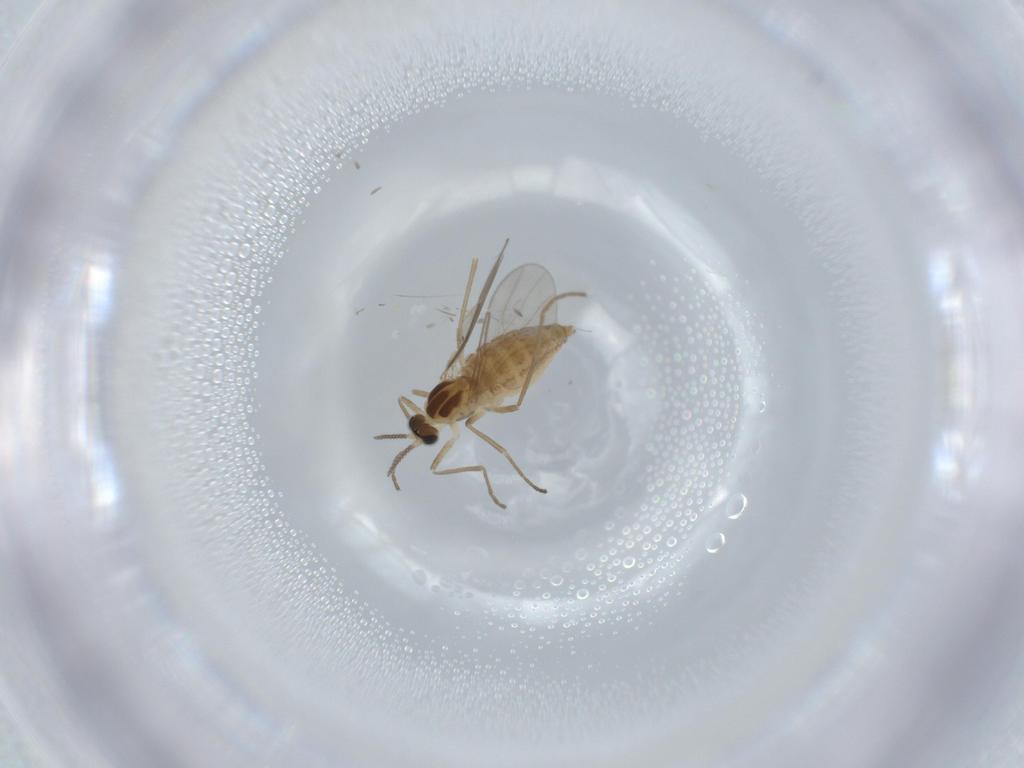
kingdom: Animalia
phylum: Arthropoda
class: Insecta
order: Diptera
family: Cecidomyiidae
